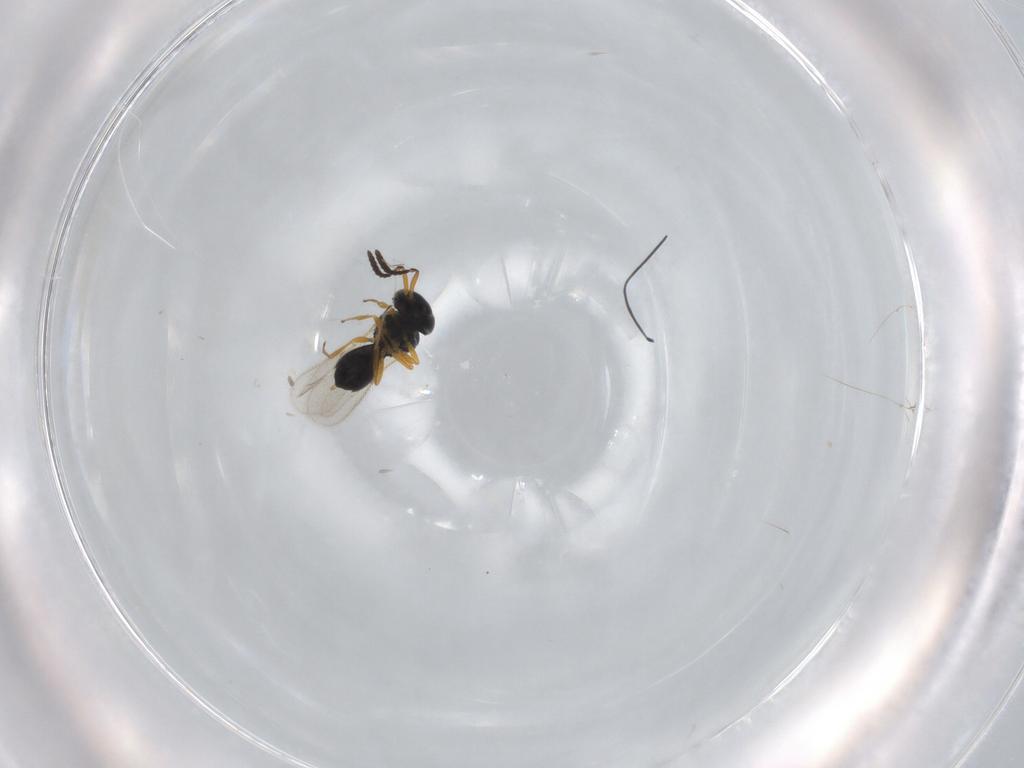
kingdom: Animalia
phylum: Arthropoda
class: Insecta
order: Hymenoptera
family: Scelionidae
